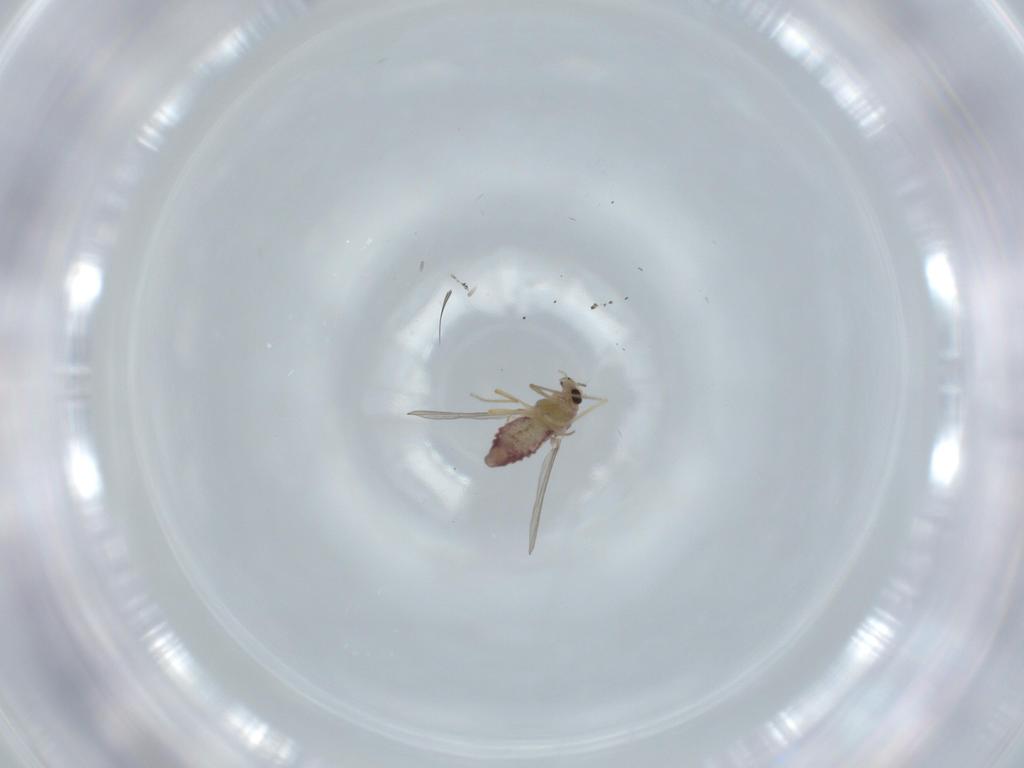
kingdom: Animalia
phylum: Arthropoda
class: Insecta
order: Diptera
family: Chironomidae
